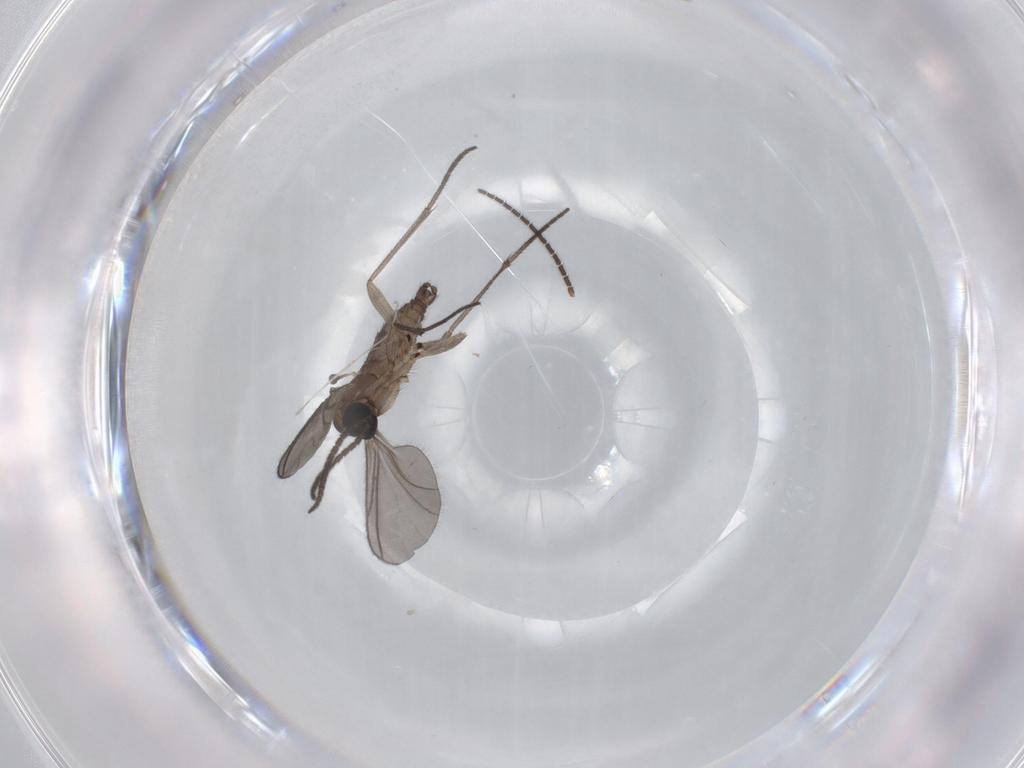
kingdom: Animalia
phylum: Arthropoda
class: Insecta
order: Diptera
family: Sciaridae
